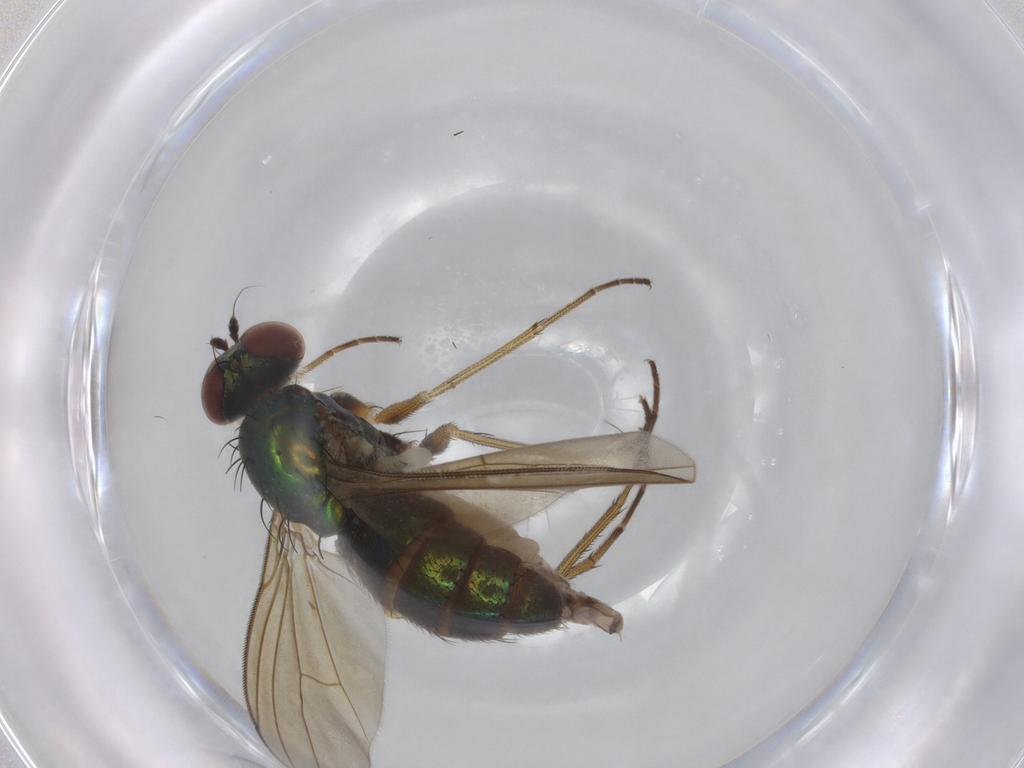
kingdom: Animalia
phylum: Arthropoda
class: Insecta
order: Diptera
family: Dolichopodidae
